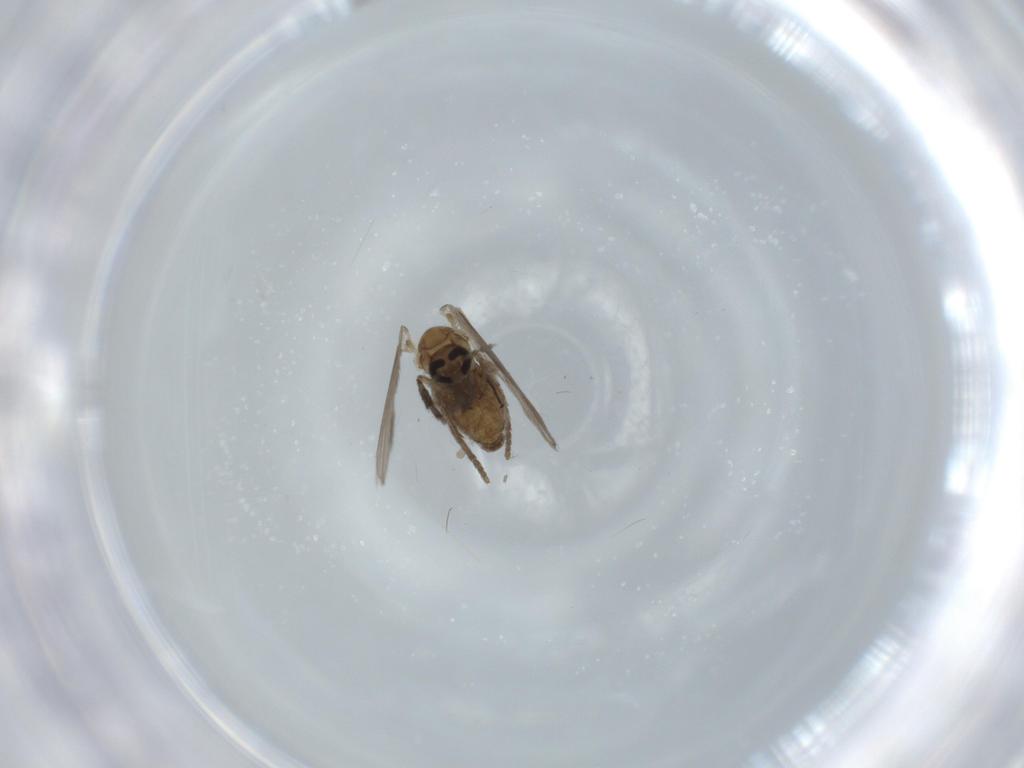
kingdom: Animalia
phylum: Arthropoda
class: Insecta
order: Diptera
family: Psychodidae
